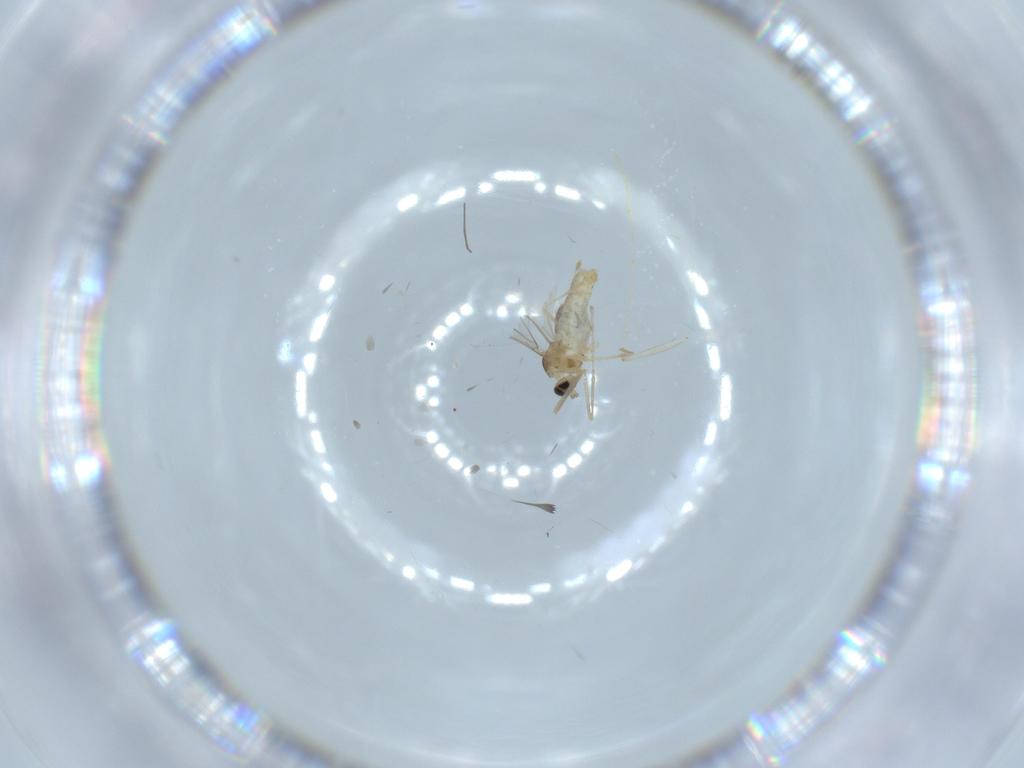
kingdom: Animalia
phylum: Arthropoda
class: Insecta
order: Diptera
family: Cecidomyiidae
